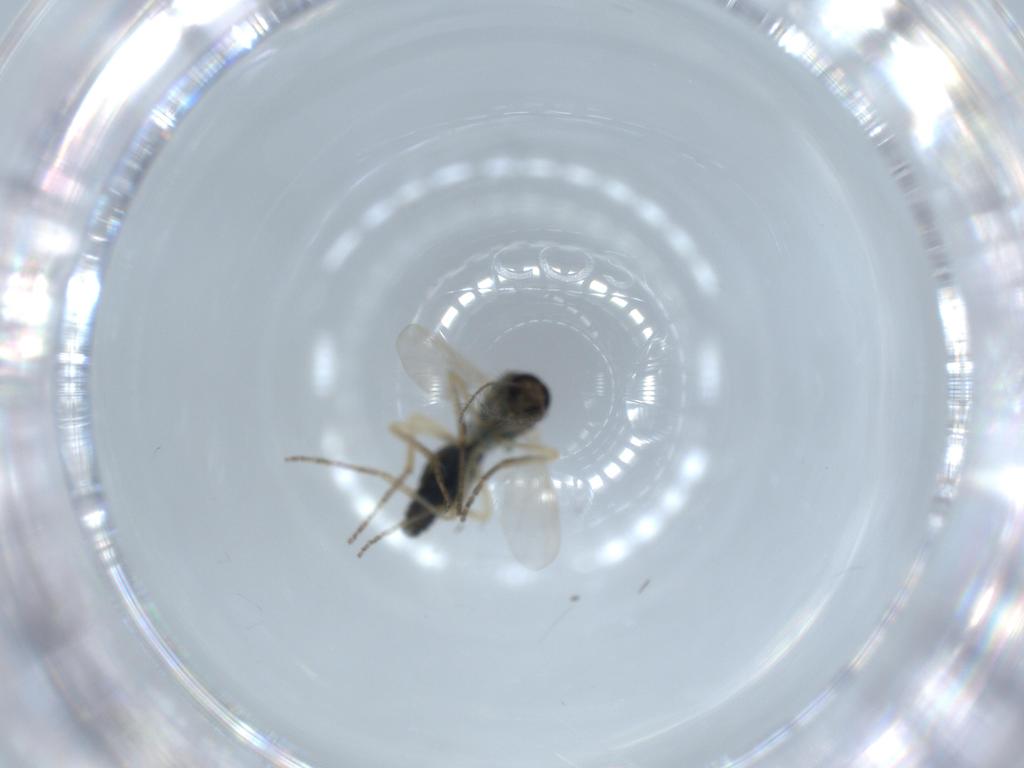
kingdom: Animalia
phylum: Arthropoda
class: Insecta
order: Diptera
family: Ceratopogonidae
